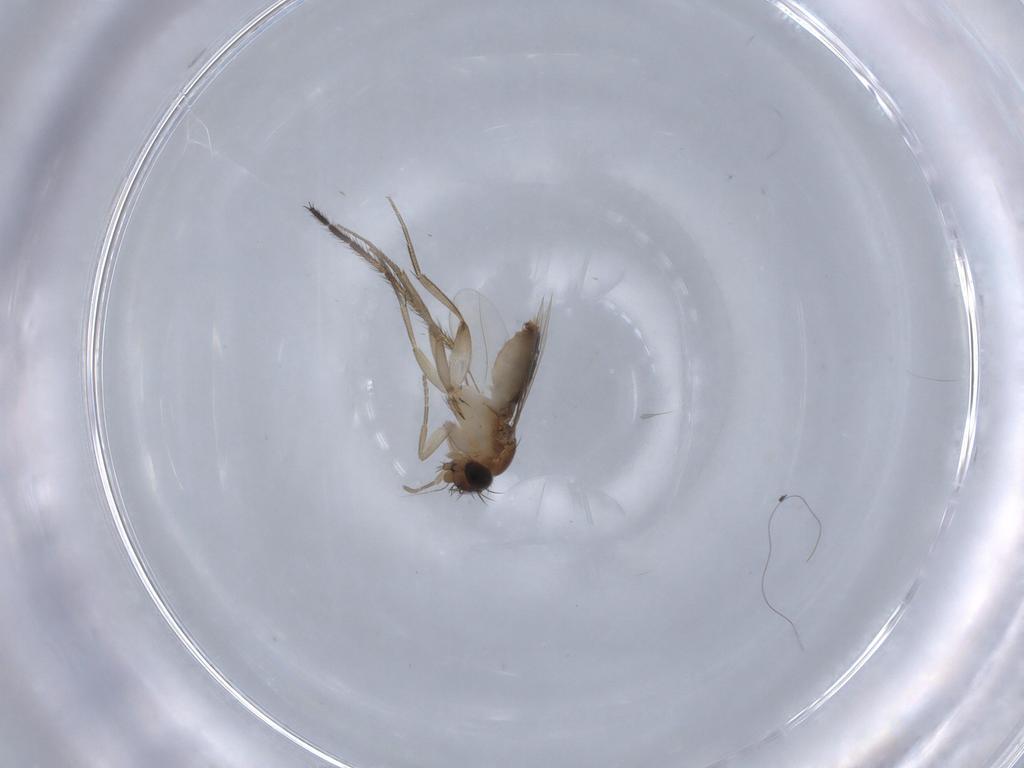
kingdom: Animalia
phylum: Arthropoda
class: Insecta
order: Diptera
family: Phoridae
